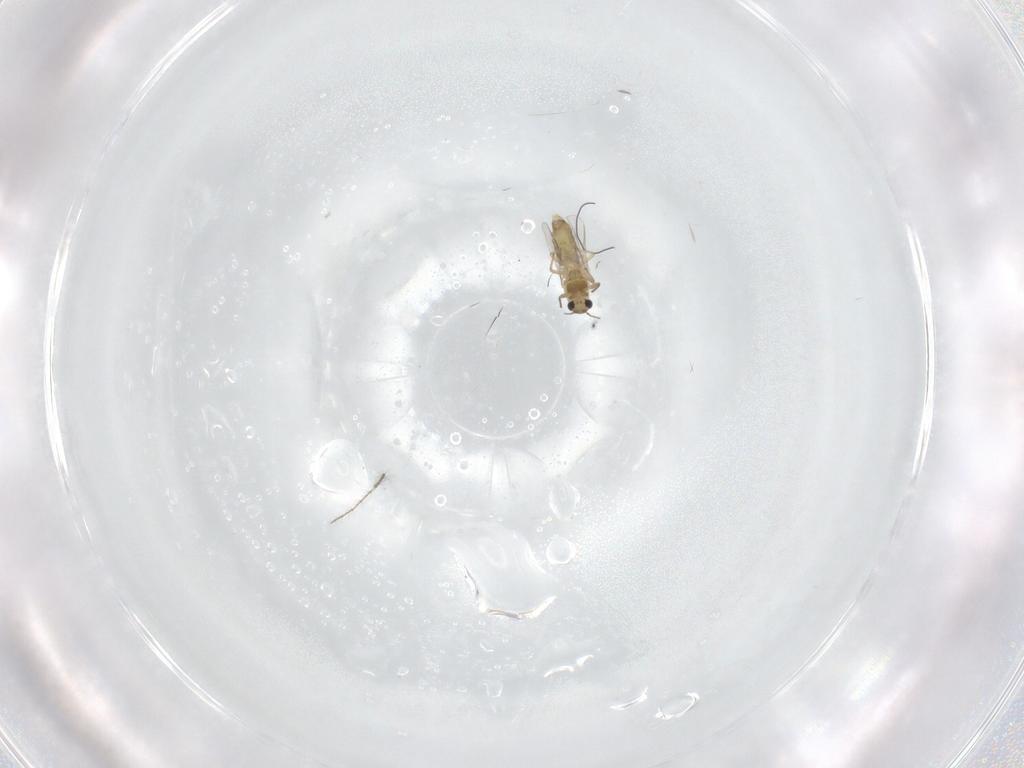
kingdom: Animalia
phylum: Arthropoda
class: Insecta
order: Diptera
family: Chironomidae
